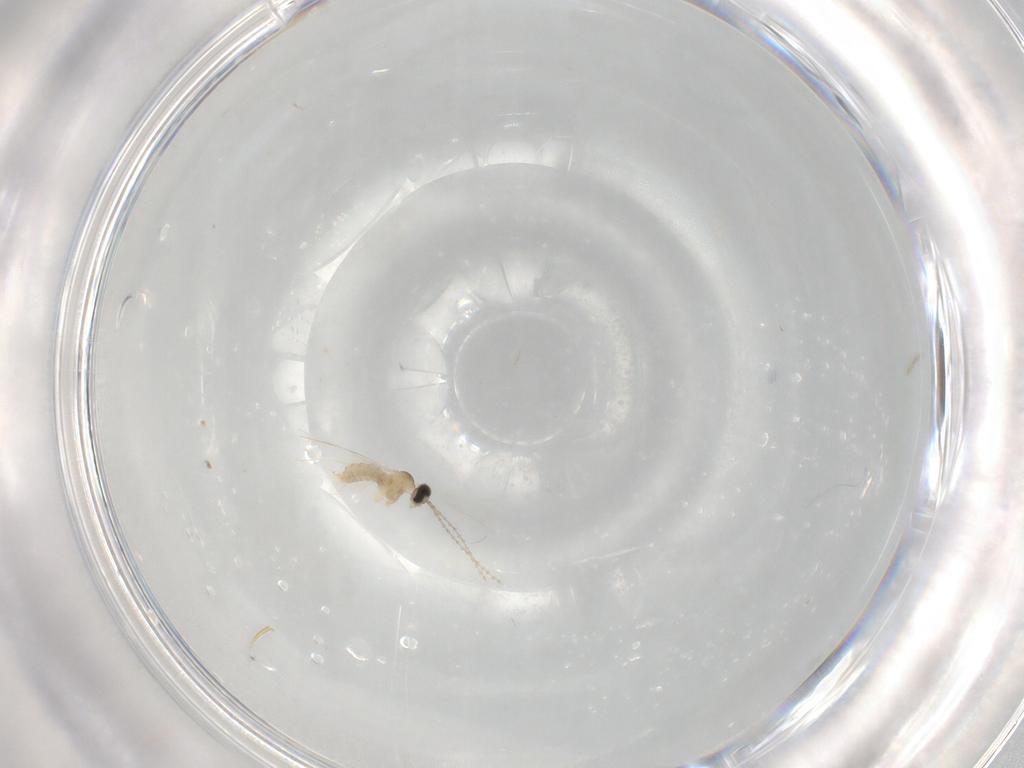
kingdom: Animalia
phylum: Arthropoda
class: Insecta
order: Diptera
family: Cecidomyiidae
